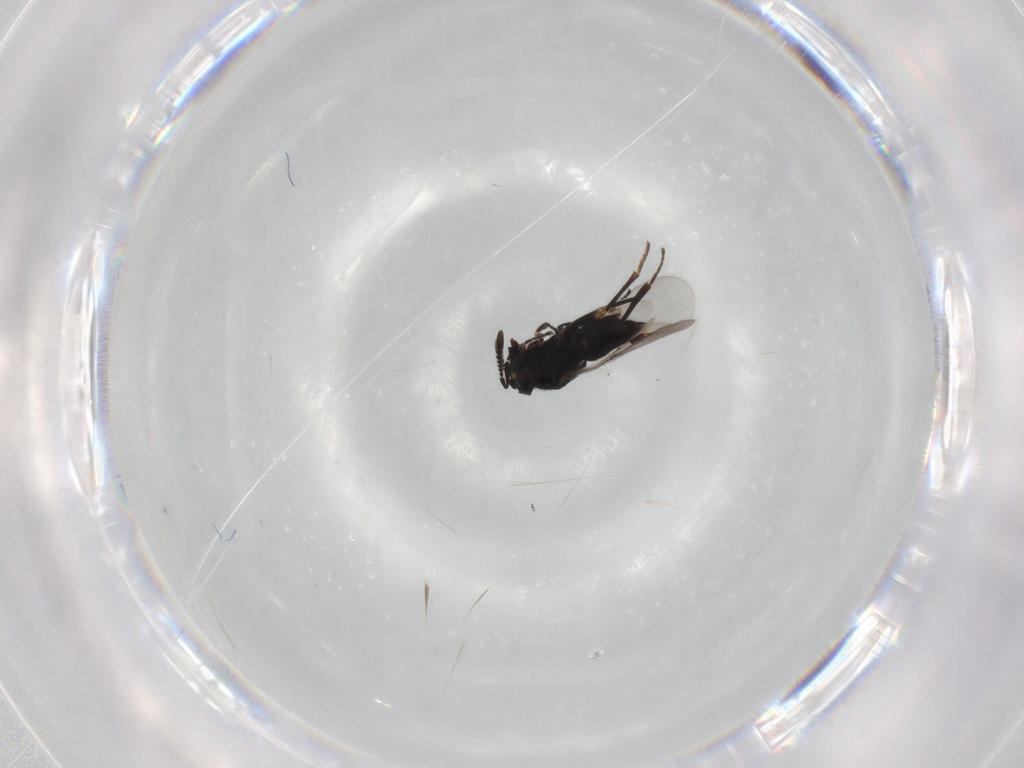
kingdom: Animalia
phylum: Arthropoda
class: Insecta
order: Hymenoptera
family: Encyrtidae
